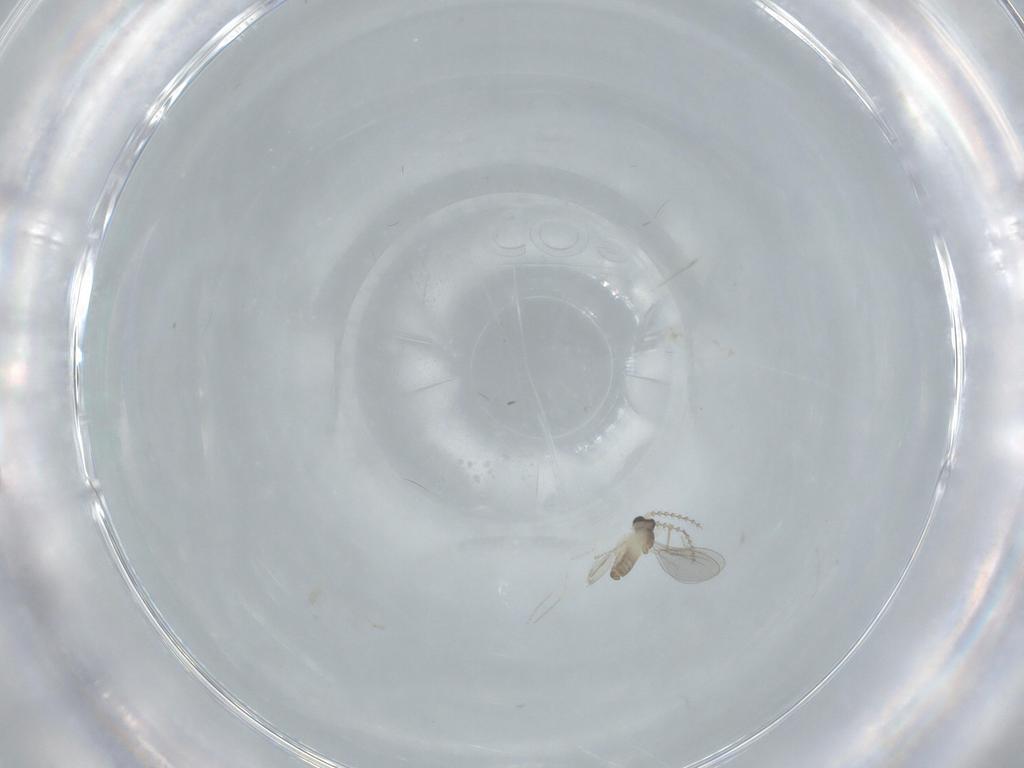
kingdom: Animalia
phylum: Arthropoda
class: Insecta
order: Diptera
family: Cecidomyiidae
